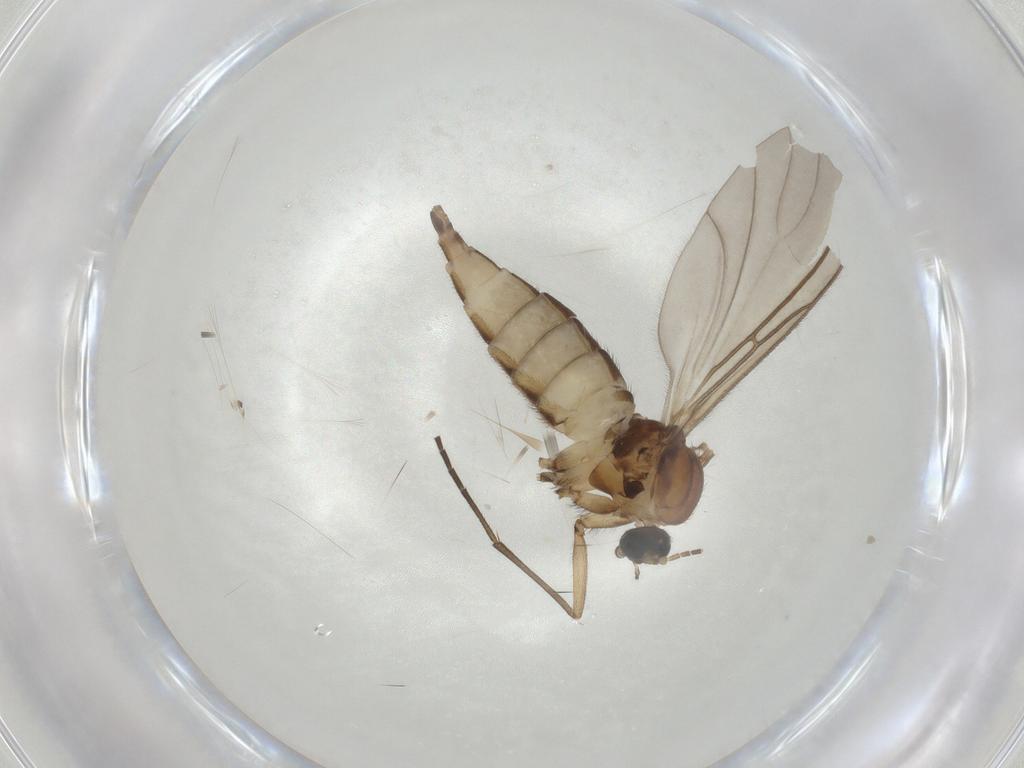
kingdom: Animalia
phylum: Arthropoda
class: Insecta
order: Diptera
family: Sciaridae
